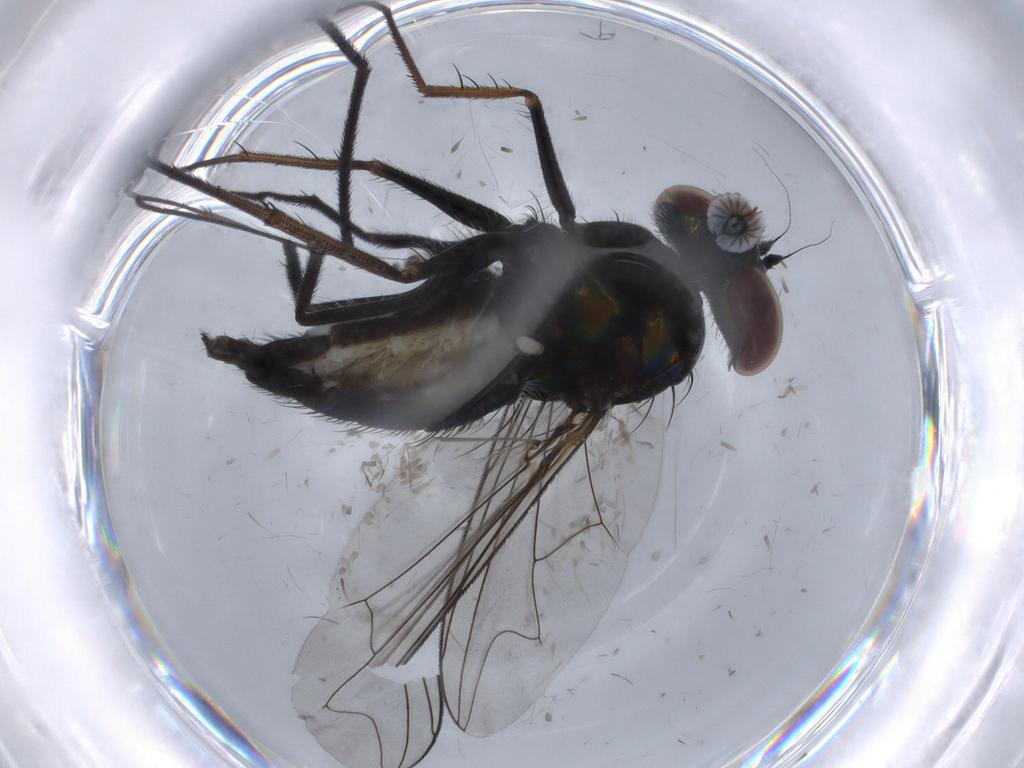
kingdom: Animalia
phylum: Arthropoda
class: Insecta
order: Diptera
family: Dolichopodidae
